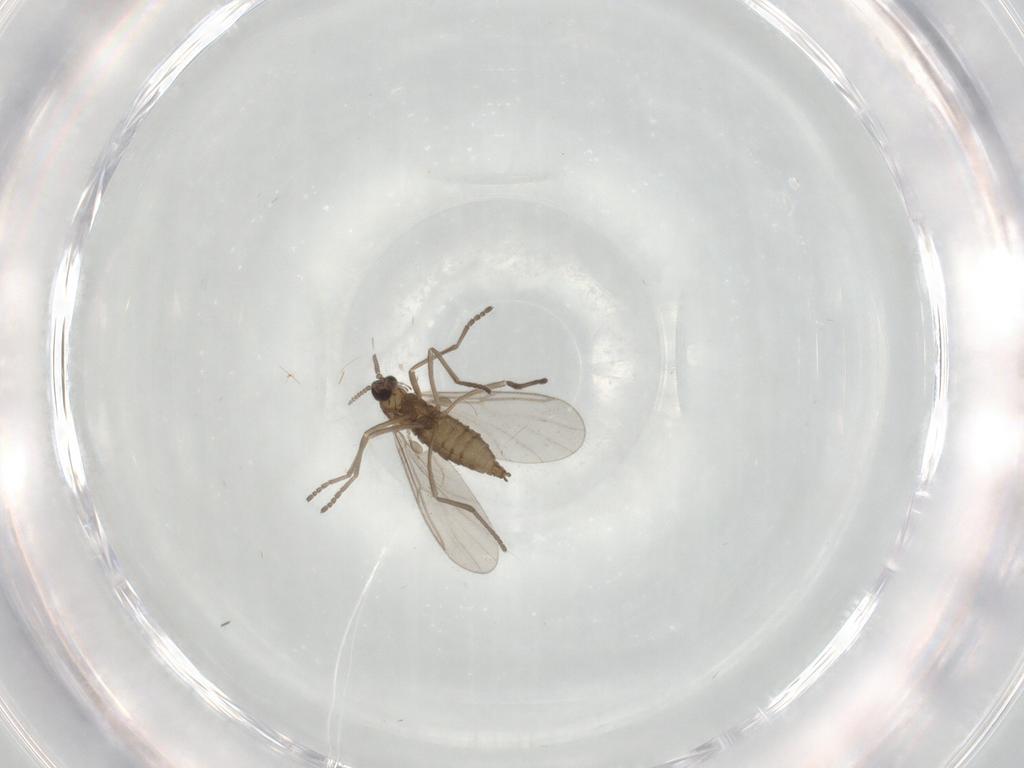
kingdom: Animalia
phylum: Arthropoda
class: Insecta
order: Diptera
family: Cecidomyiidae
